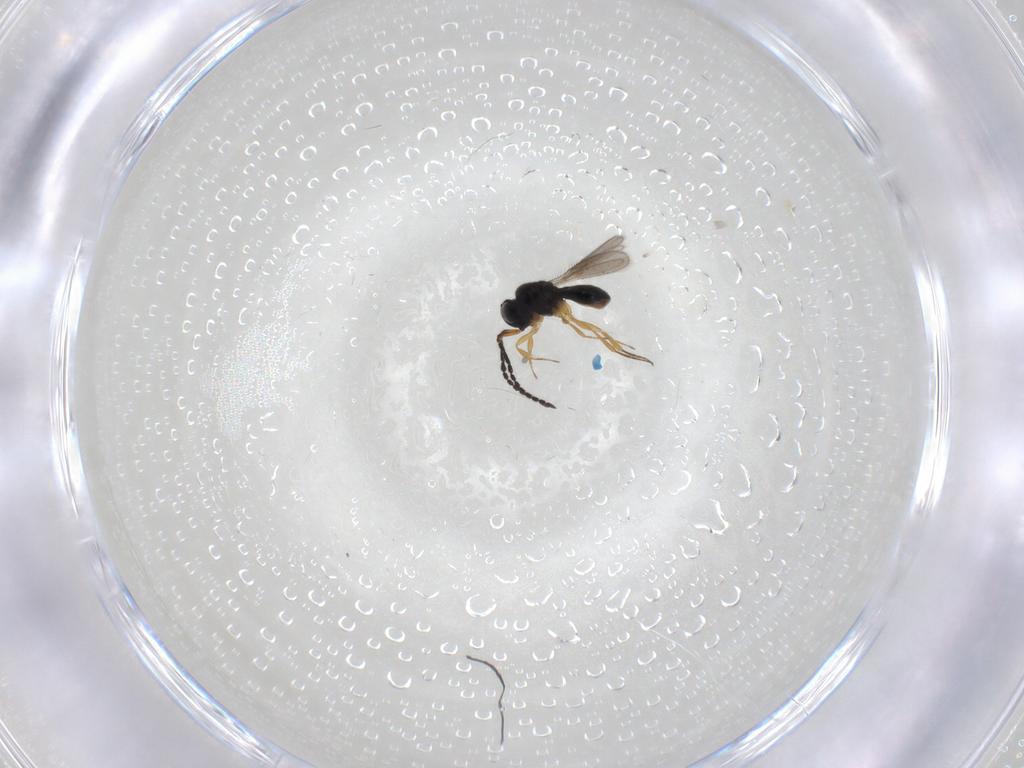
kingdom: Animalia
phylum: Arthropoda
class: Insecta
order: Hymenoptera
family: Scelionidae
